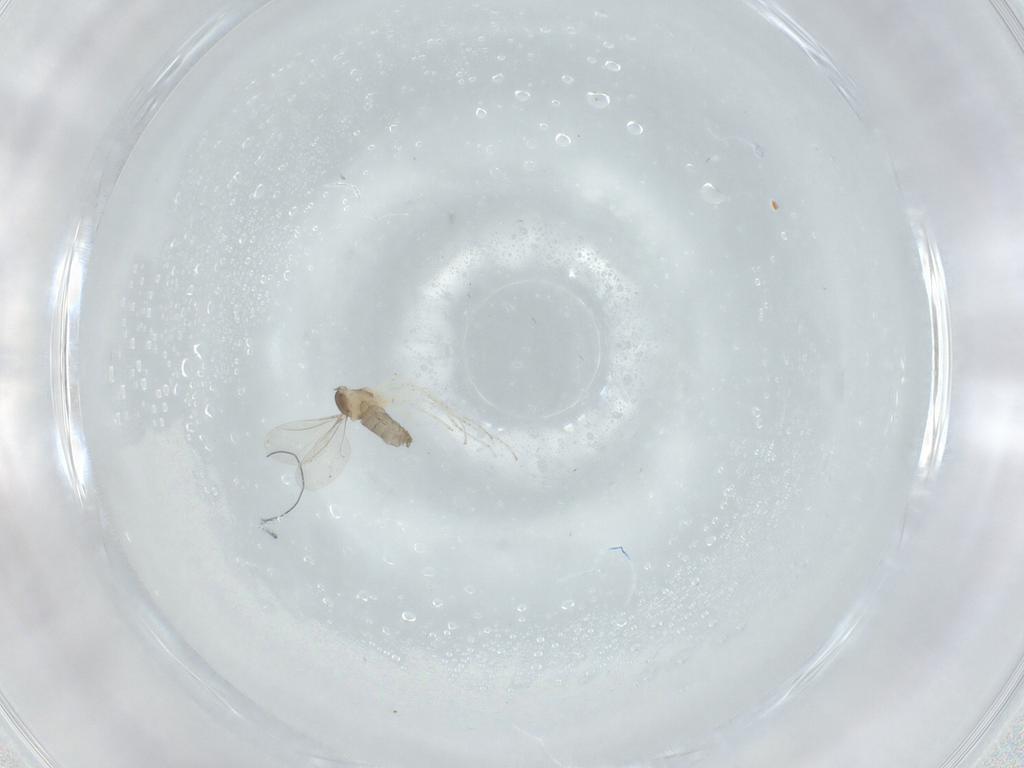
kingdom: Animalia
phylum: Arthropoda
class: Insecta
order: Diptera
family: Cecidomyiidae
